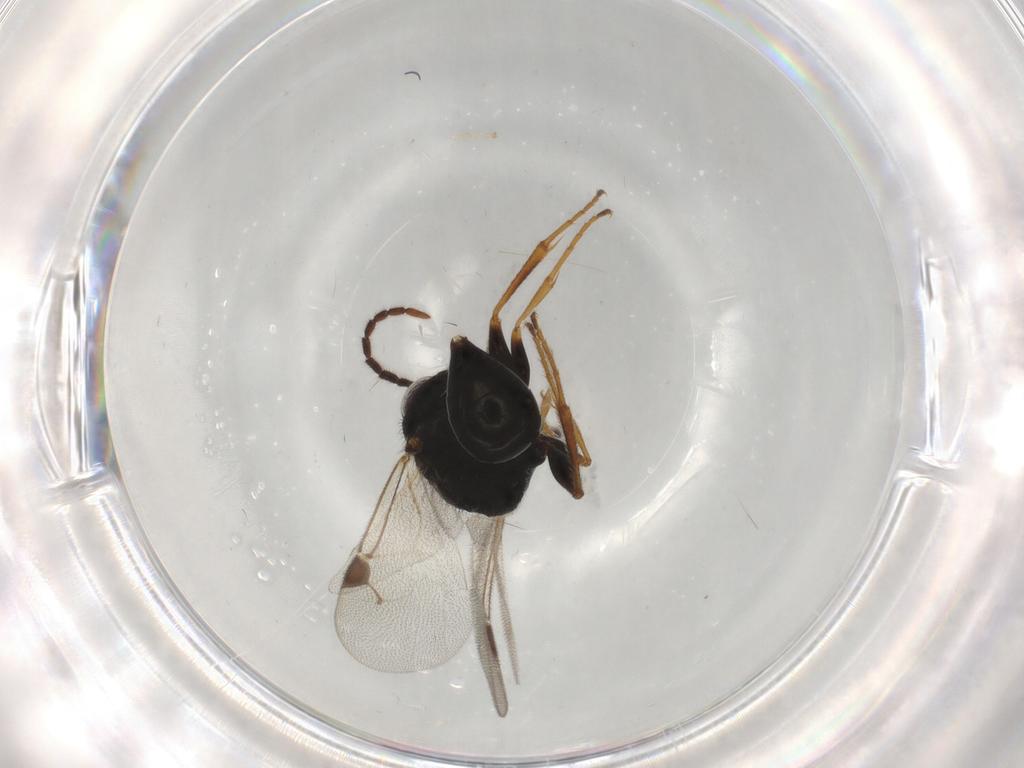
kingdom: Animalia
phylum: Arthropoda
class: Insecta
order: Hymenoptera
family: Dryinidae
